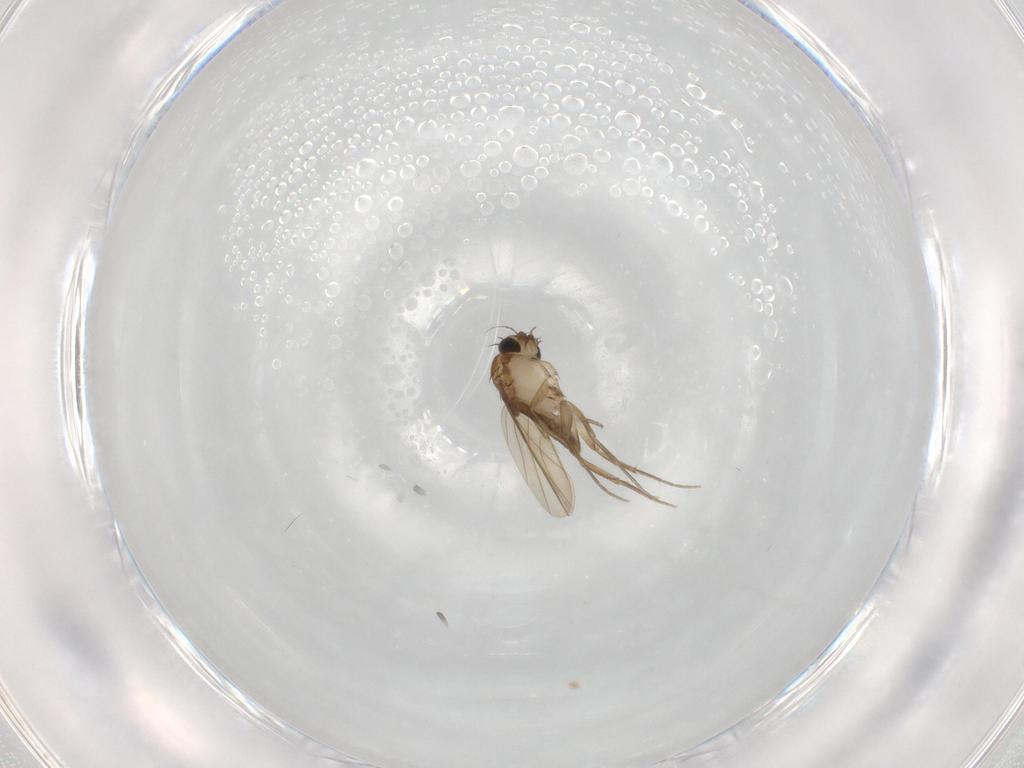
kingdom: Animalia
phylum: Arthropoda
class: Insecta
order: Diptera
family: Phoridae
